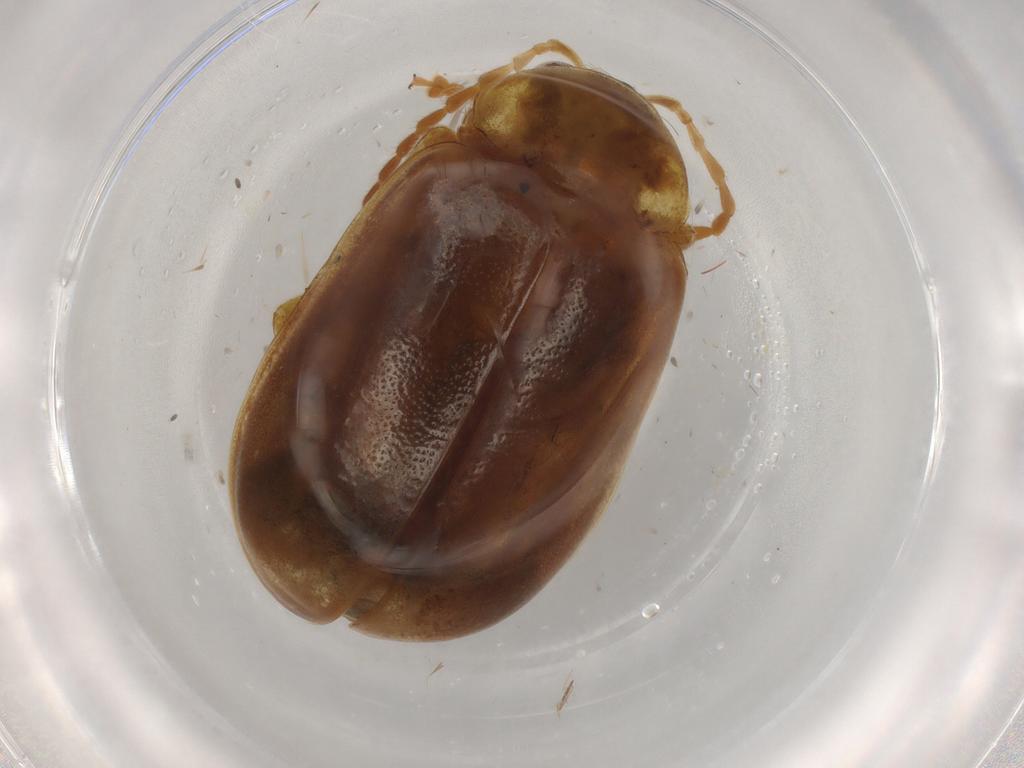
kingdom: Animalia
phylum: Arthropoda
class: Insecta
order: Coleoptera
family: Chrysomelidae
